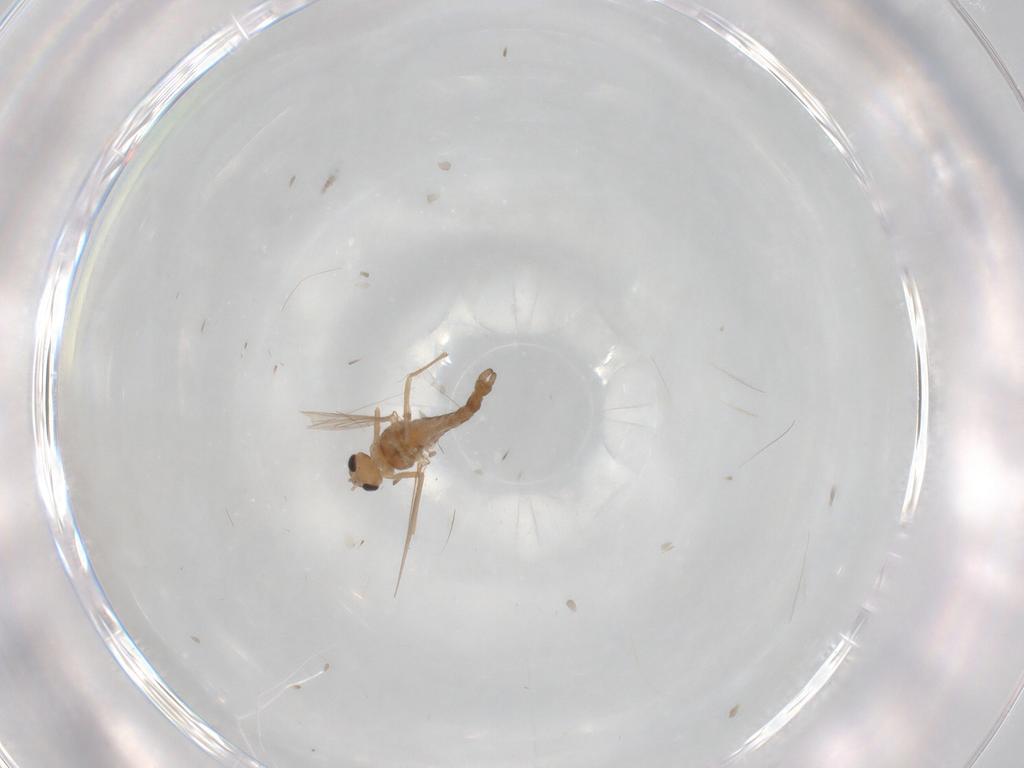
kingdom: Animalia
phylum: Arthropoda
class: Insecta
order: Diptera
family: Chironomidae
